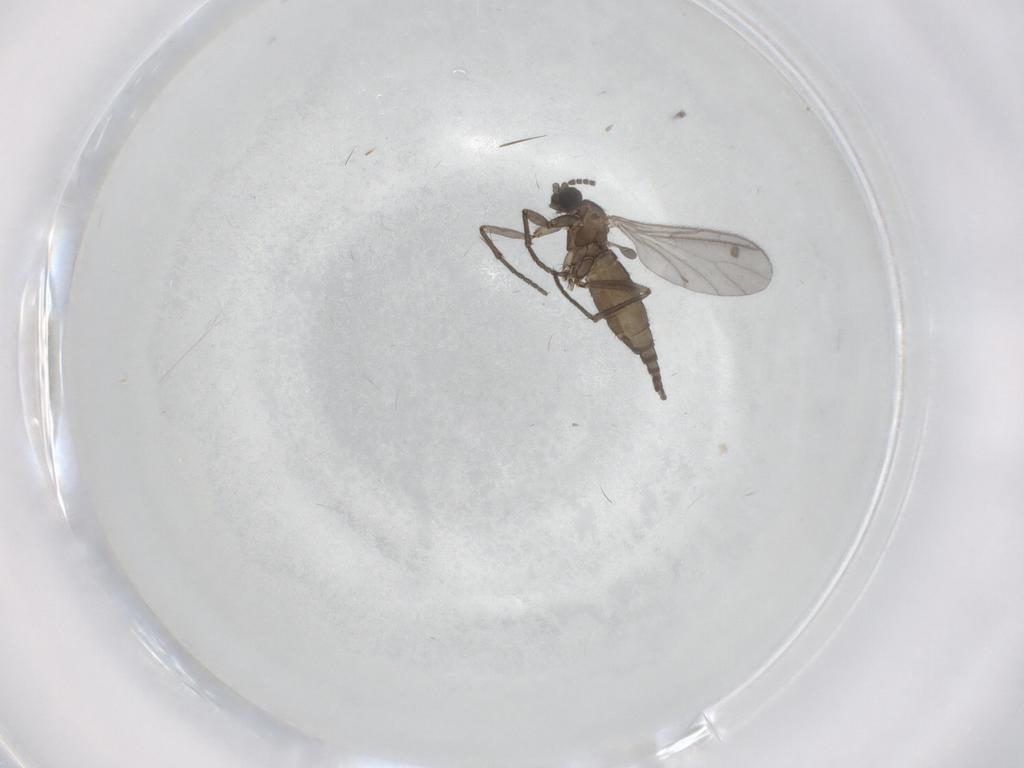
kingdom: Animalia
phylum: Arthropoda
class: Insecta
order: Diptera
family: Sciaridae
